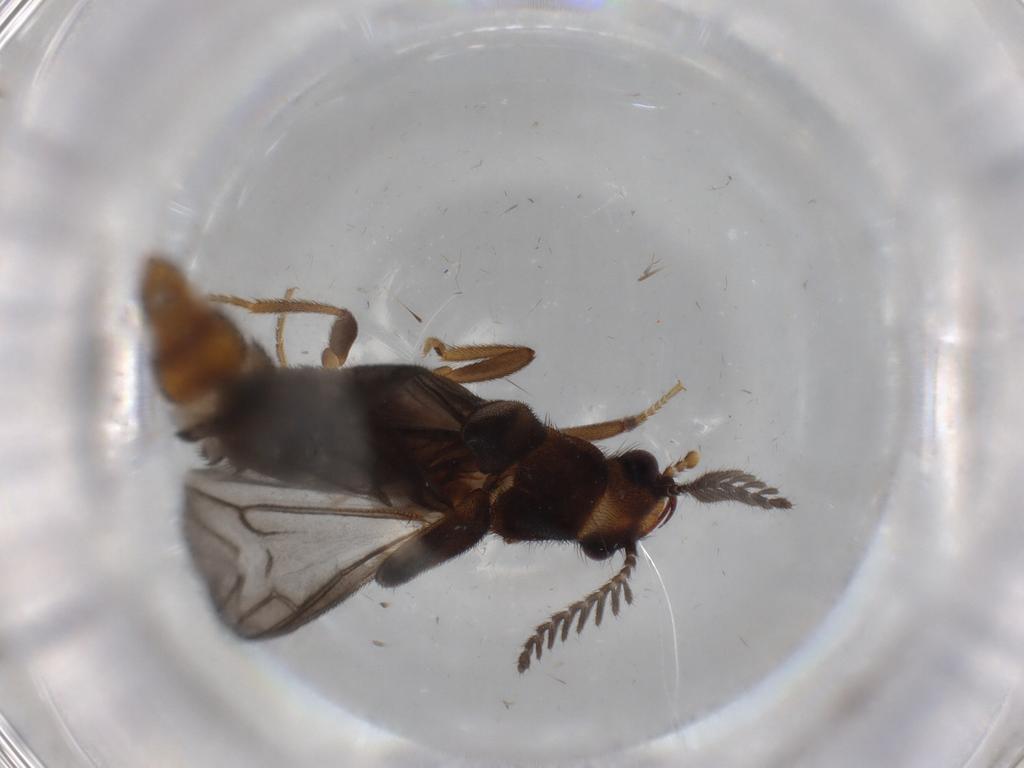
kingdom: Animalia
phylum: Arthropoda
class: Insecta
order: Coleoptera
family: Phengodidae
